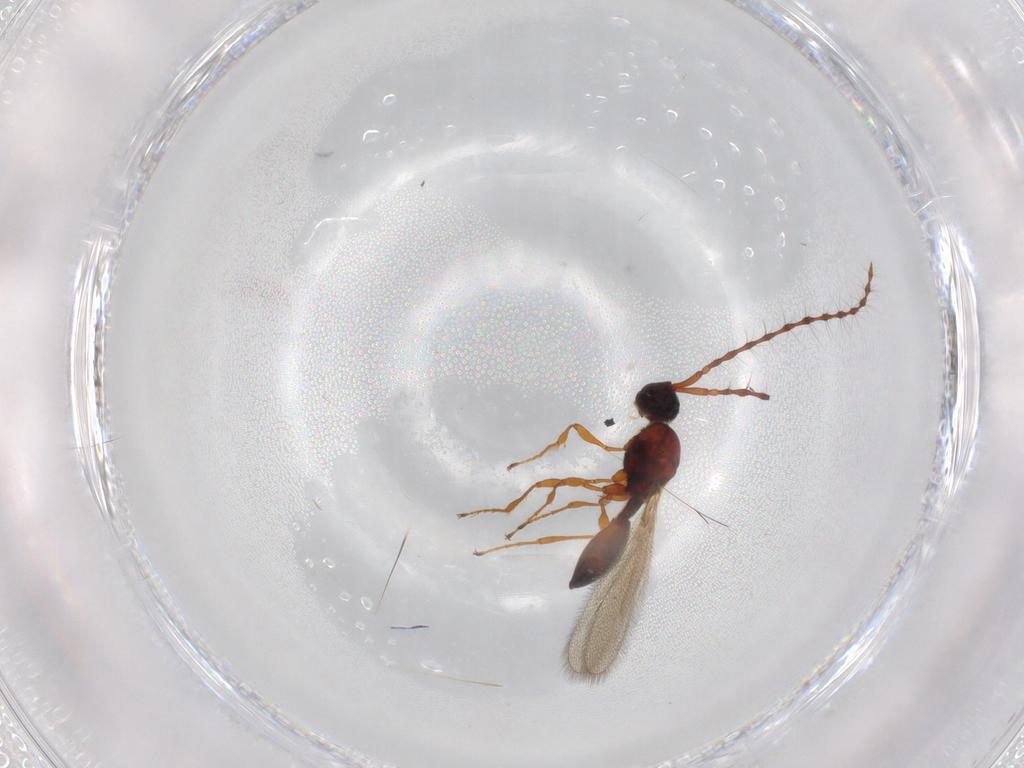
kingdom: Animalia
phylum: Arthropoda
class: Insecta
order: Hymenoptera
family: Diapriidae
